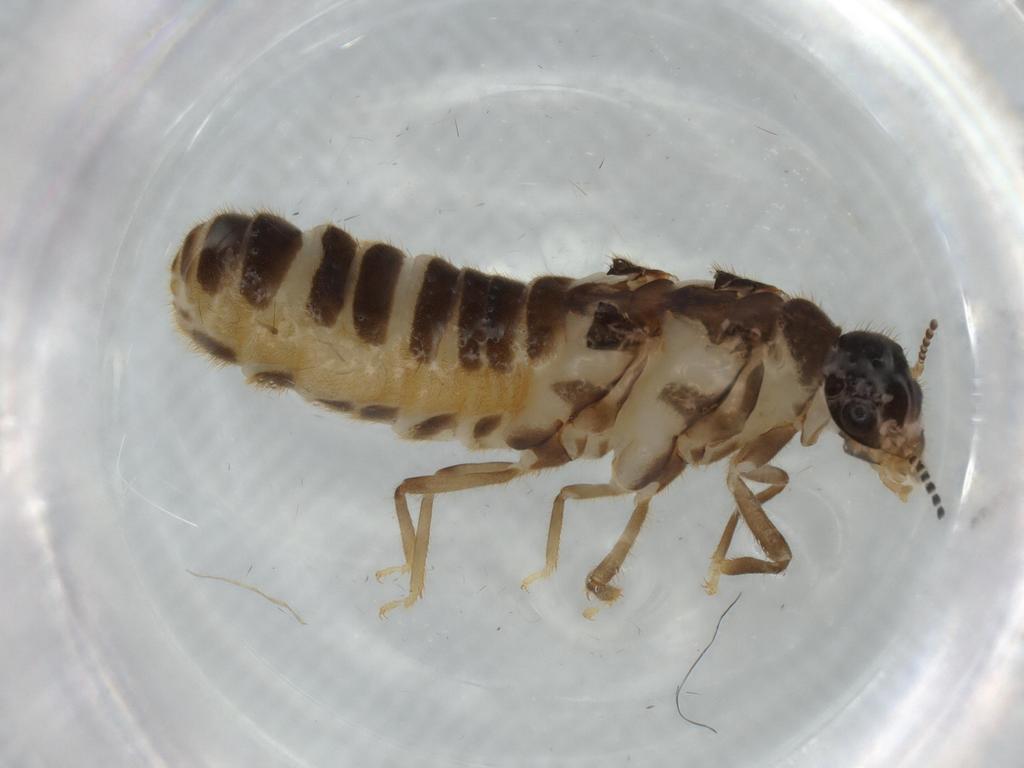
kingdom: Animalia
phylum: Arthropoda
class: Insecta
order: Blattodea
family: Termitidae
